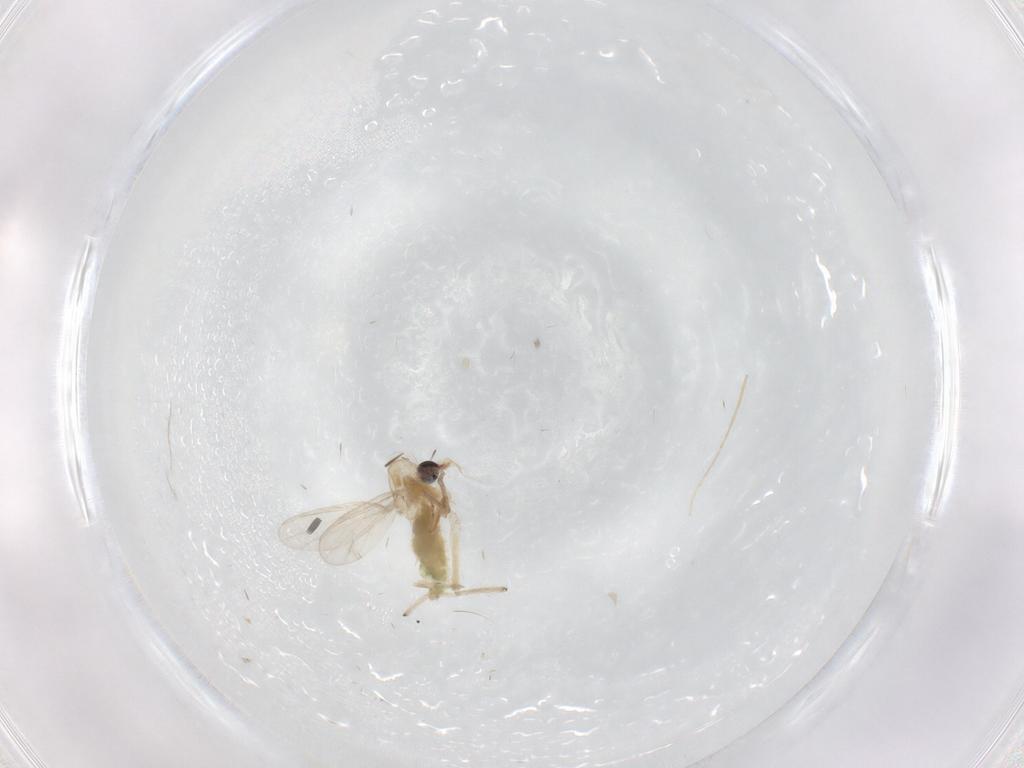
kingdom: Animalia
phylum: Arthropoda
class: Insecta
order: Diptera
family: Chironomidae
